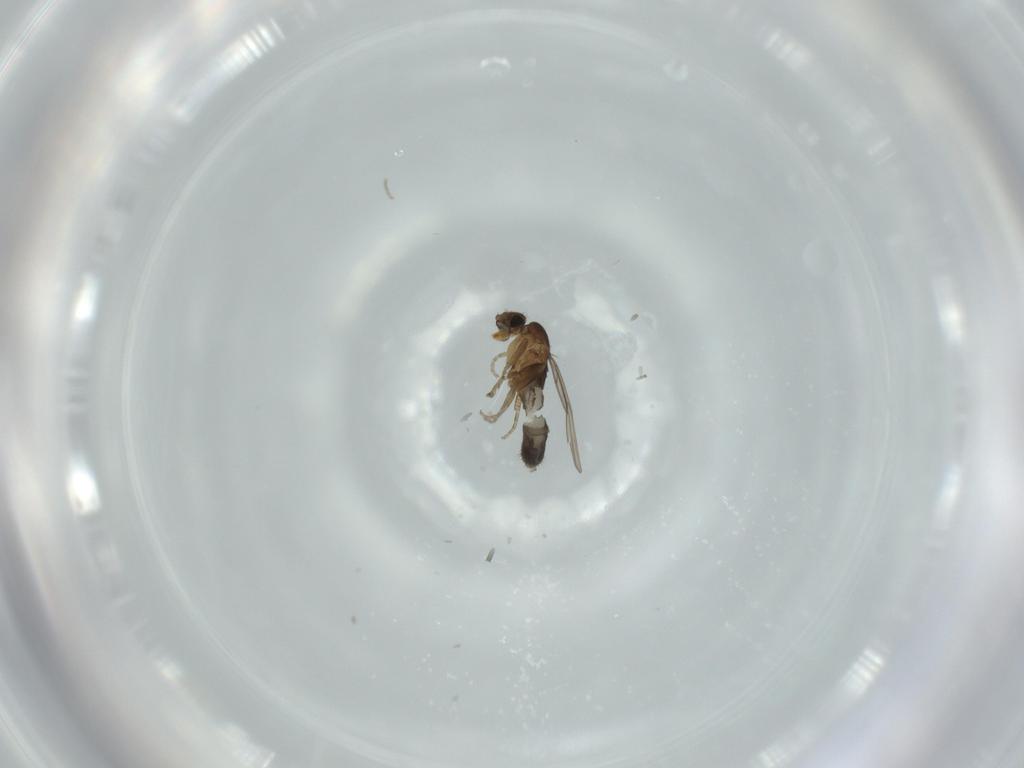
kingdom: Animalia
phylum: Arthropoda
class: Insecta
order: Diptera
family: Phoridae
